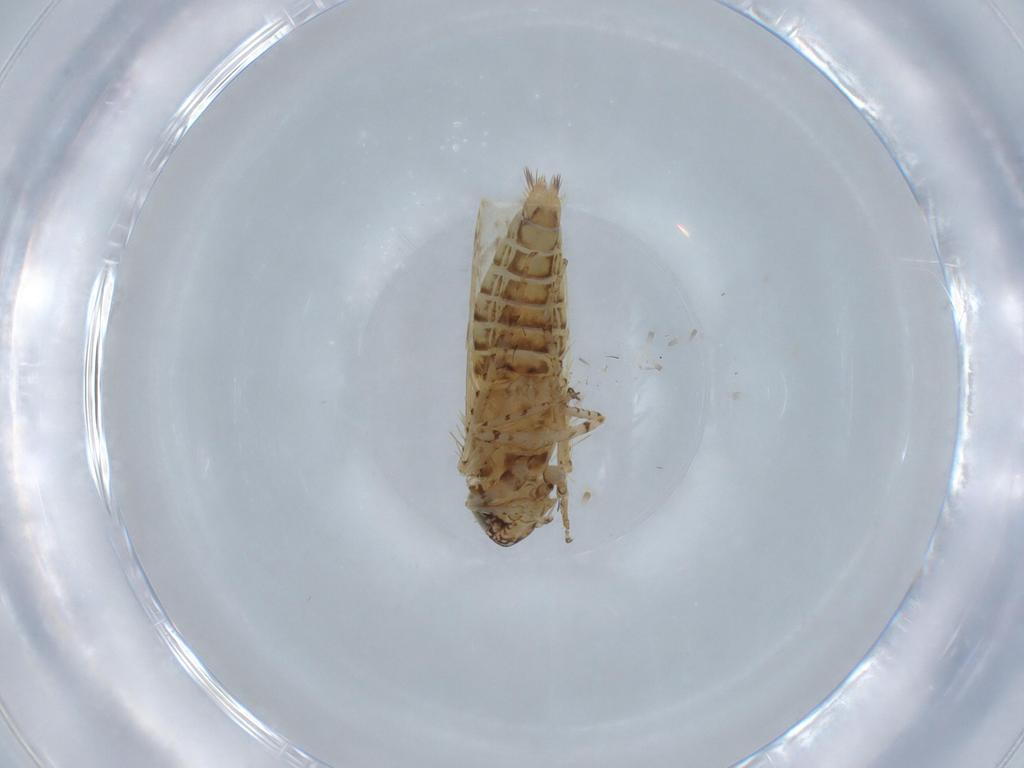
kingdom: Animalia
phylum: Arthropoda
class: Insecta
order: Hemiptera
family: Cicadellidae
